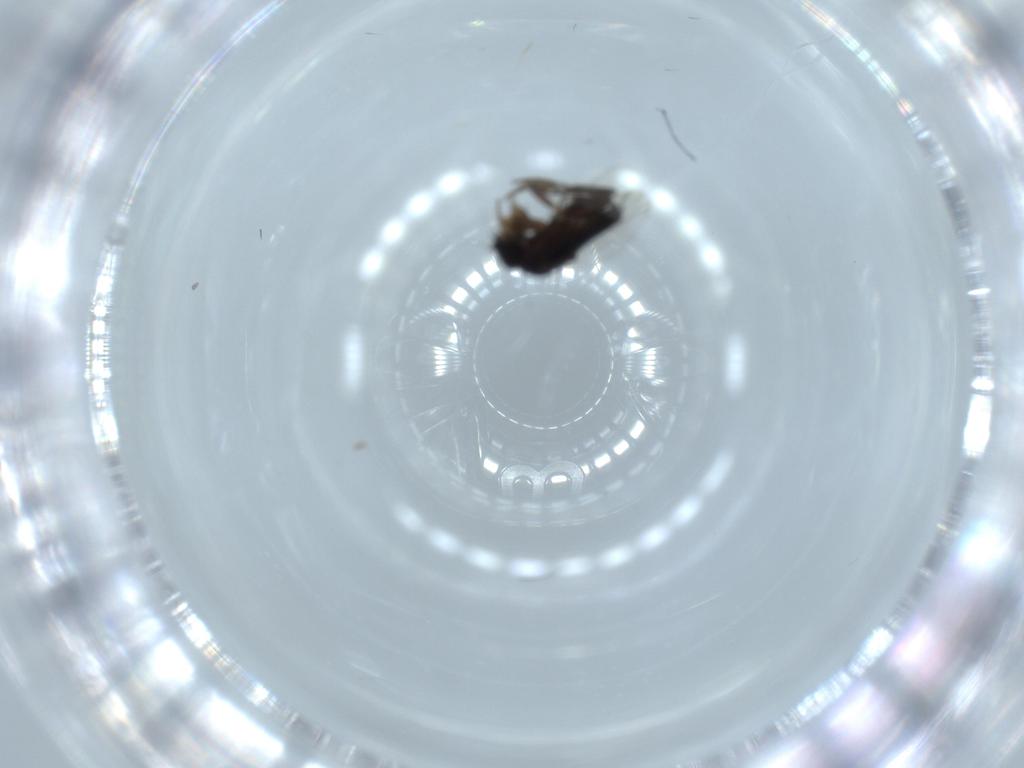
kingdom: Animalia
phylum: Arthropoda
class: Insecta
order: Diptera
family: Phoridae
